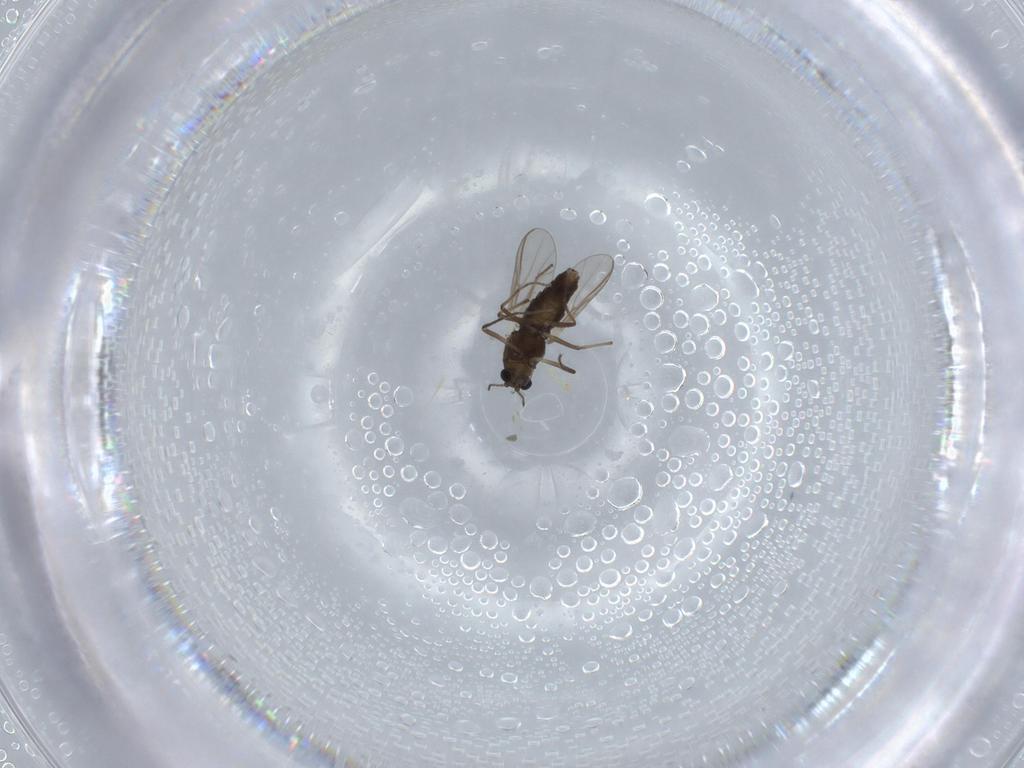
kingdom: Animalia
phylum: Arthropoda
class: Insecta
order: Diptera
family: Chironomidae
